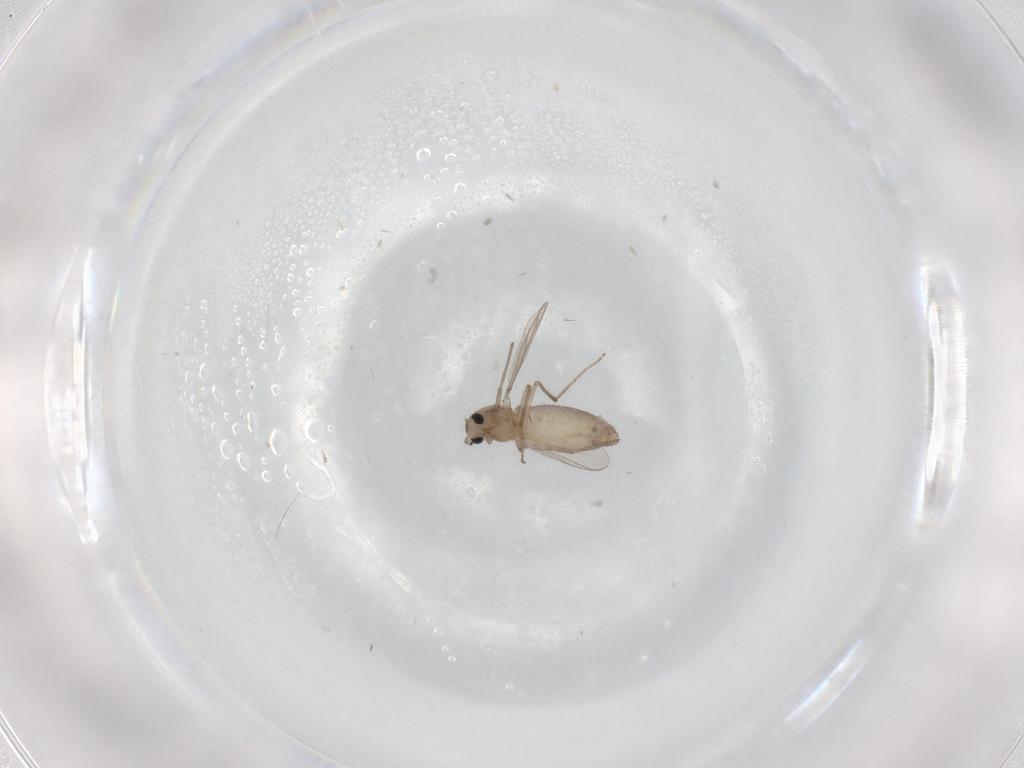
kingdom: Animalia
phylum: Arthropoda
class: Insecta
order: Diptera
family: Chironomidae
